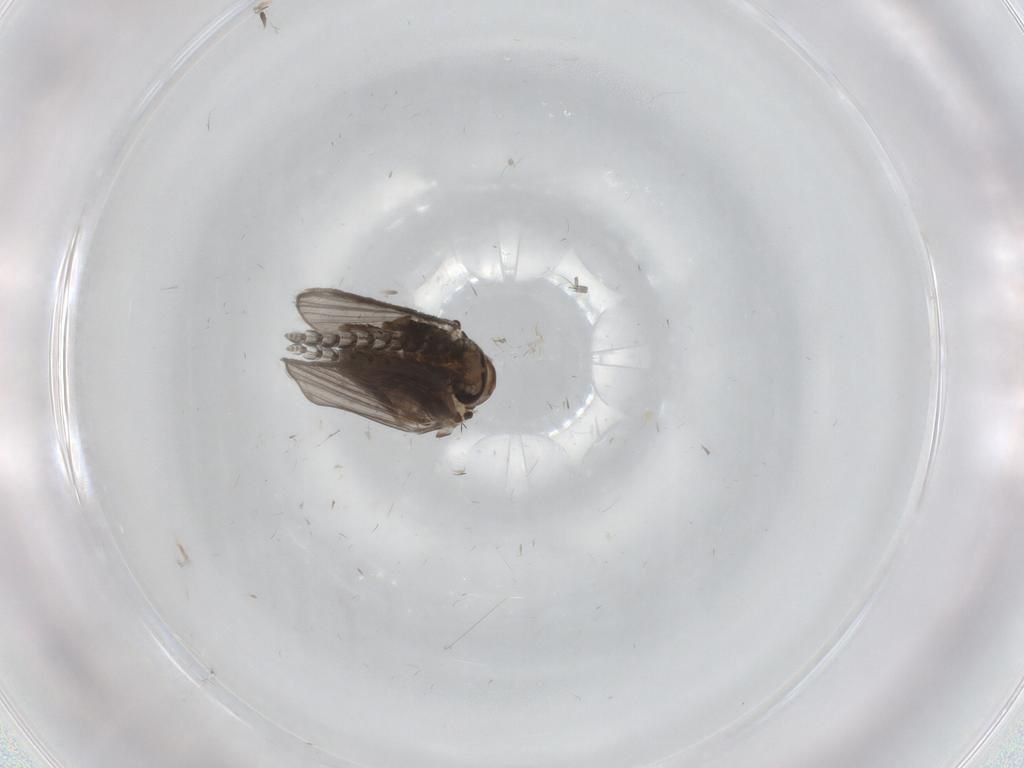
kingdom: Animalia
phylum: Arthropoda
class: Insecta
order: Diptera
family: Psychodidae
